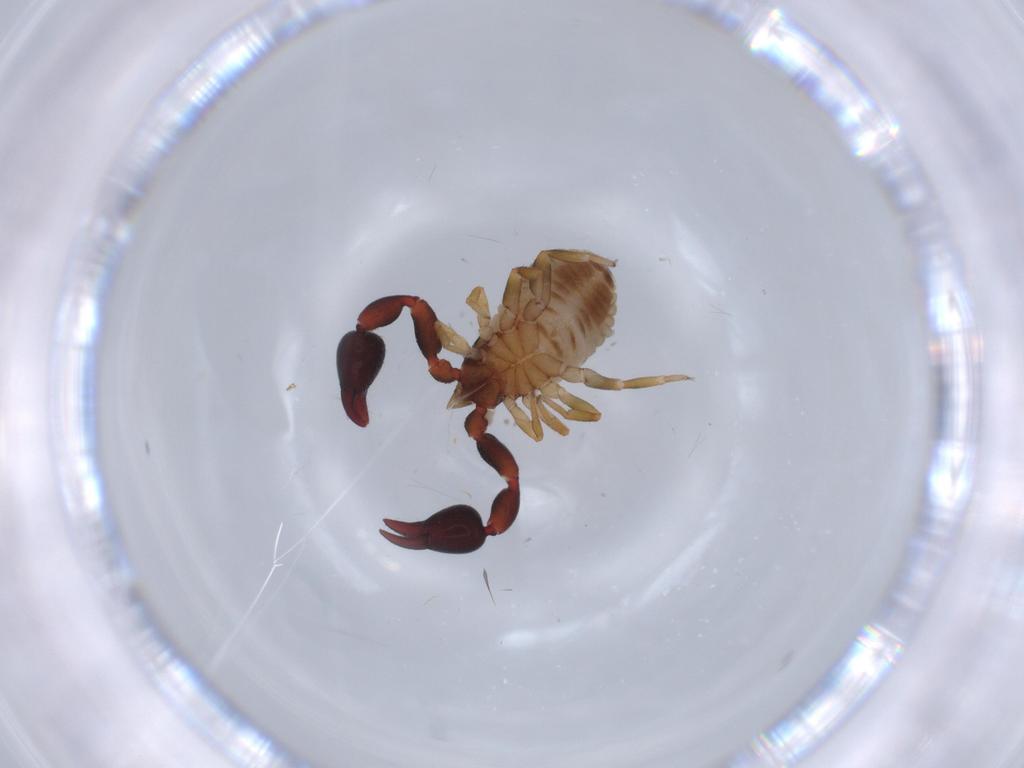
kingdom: Animalia
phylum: Arthropoda
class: Arachnida
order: Pseudoscorpiones
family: Chernetidae
